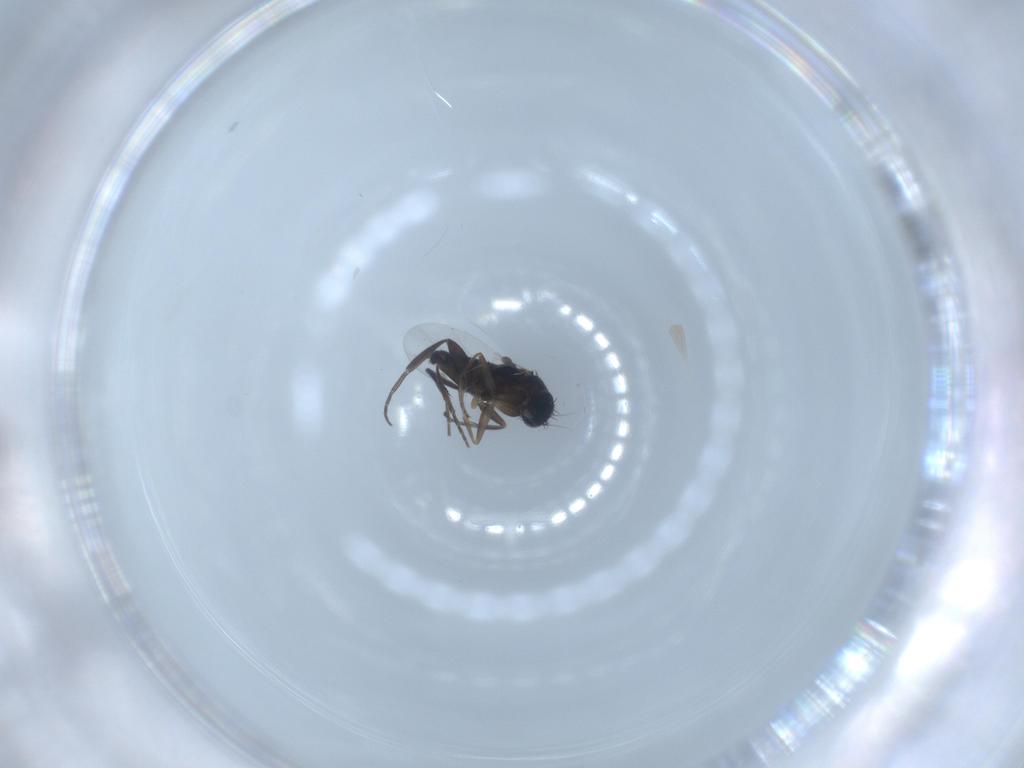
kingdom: Animalia
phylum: Arthropoda
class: Insecta
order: Diptera
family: Phoridae
